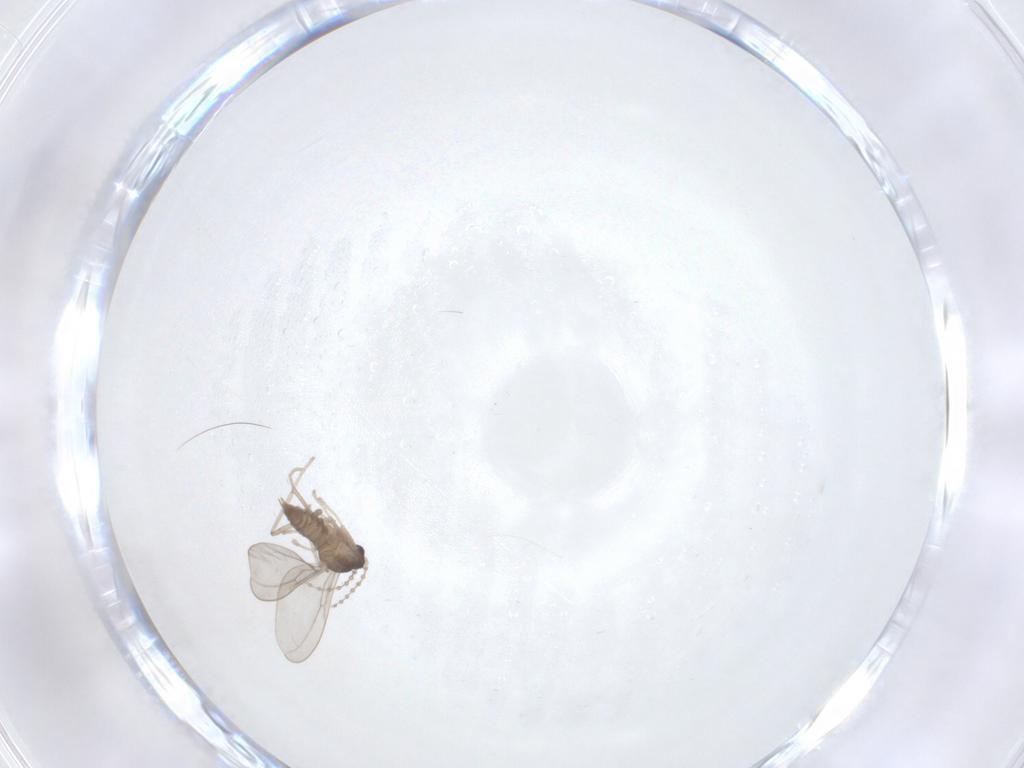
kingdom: Animalia
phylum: Arthropoda
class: Insecta
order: Diptera
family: Cecidomyiidae
